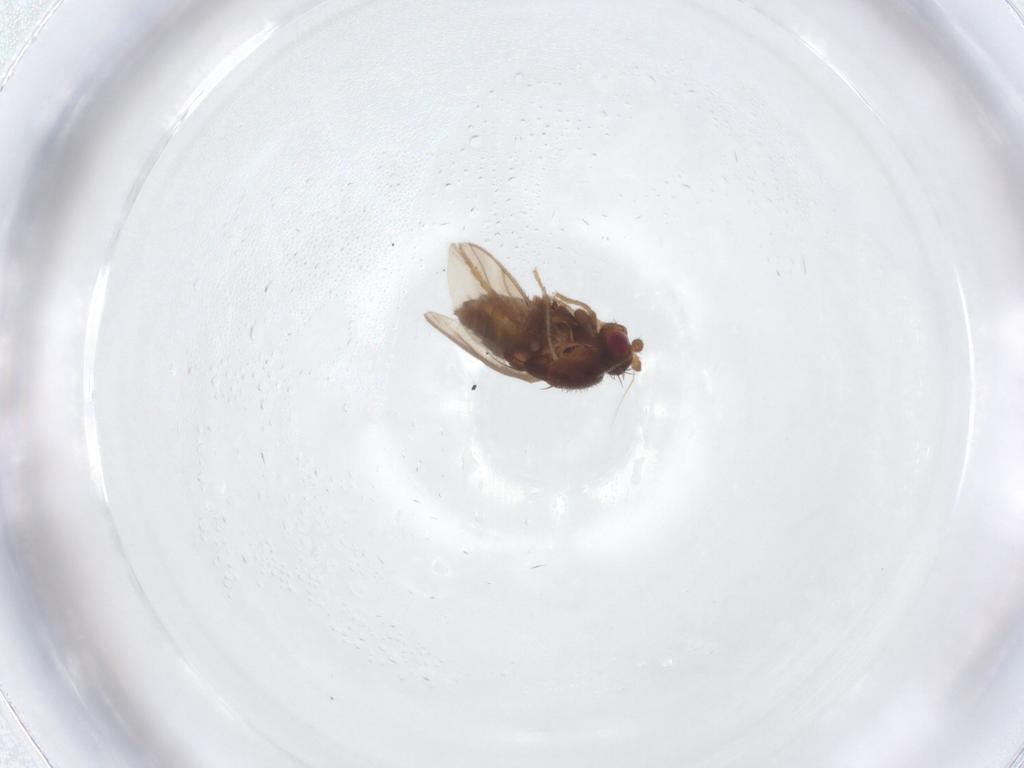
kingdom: Animalia
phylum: Arthropoda
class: Insecta
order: Diptera
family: Sphaeroceridae
